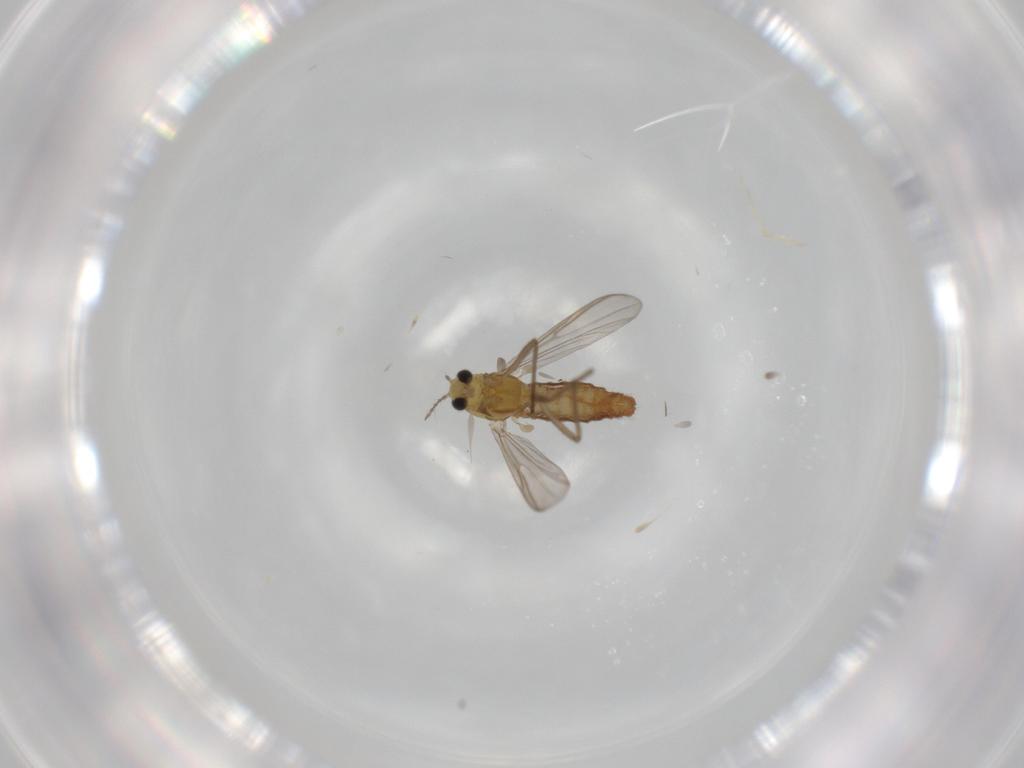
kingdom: Animalia
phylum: Arthropoda
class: Insecta
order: Diptera
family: Chironomidae
